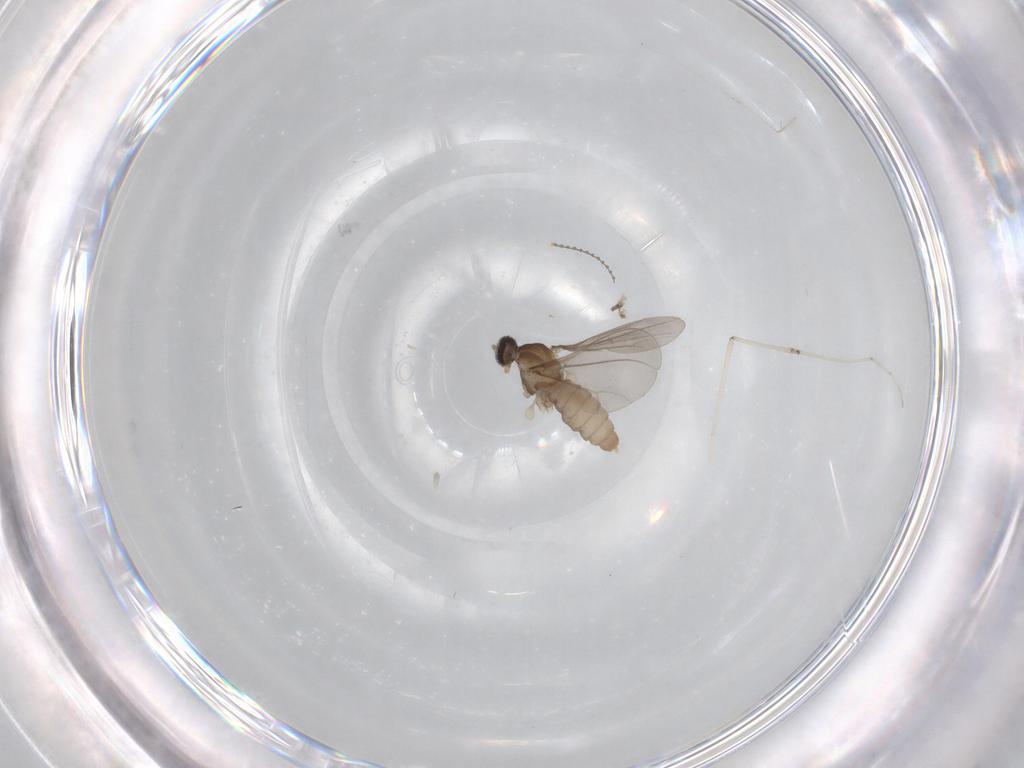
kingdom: Animalia
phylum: Arthropoda
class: Insecta
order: Diptera
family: Cecidomyiidae
